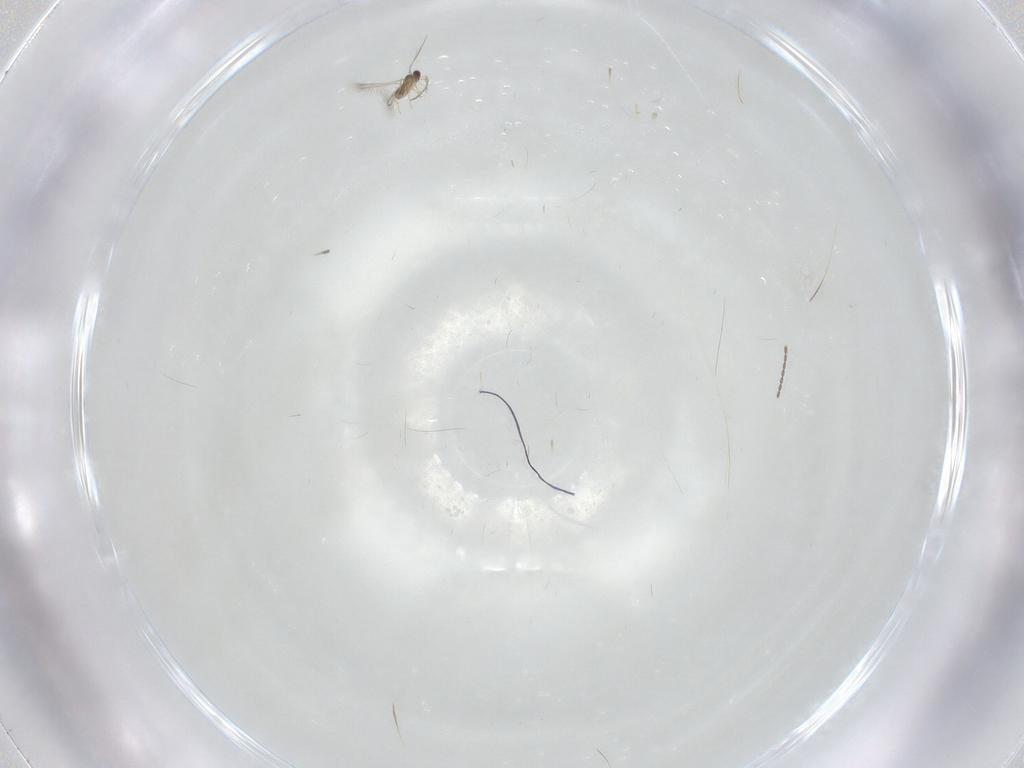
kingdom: Animalia
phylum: Arthropoda
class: Insecta
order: Diptera
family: Cecidomyiidae
